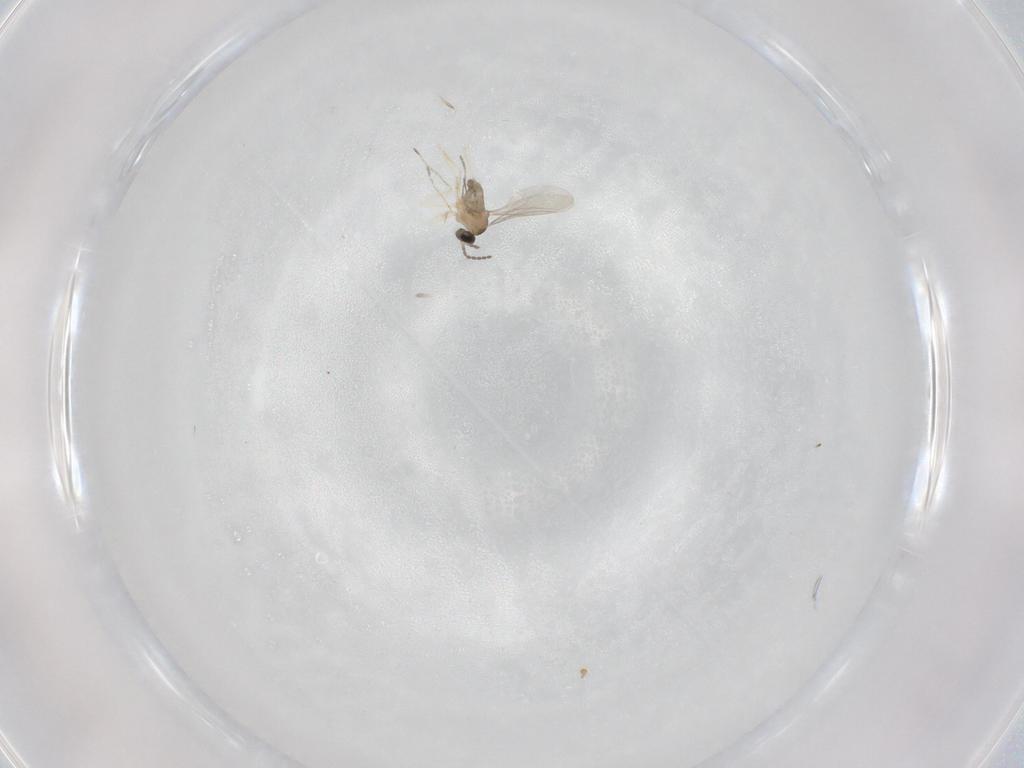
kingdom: Animalia
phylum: Arthropoda
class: Insecta
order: Diptera
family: Cecidomyiidae
